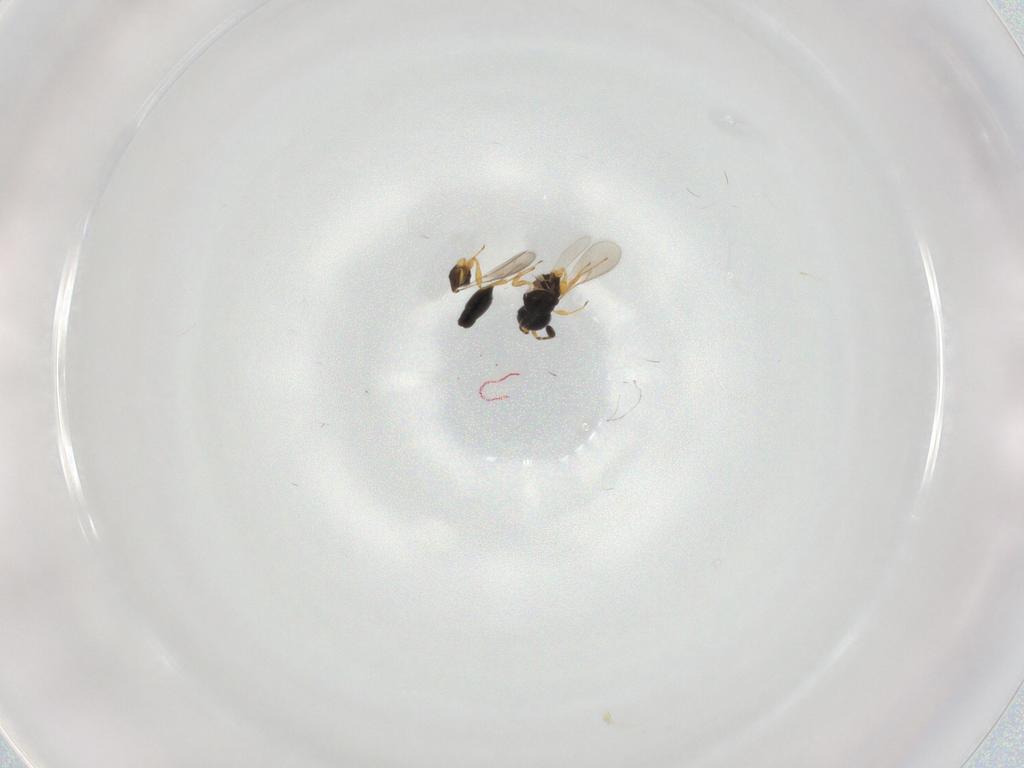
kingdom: Animalia
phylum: Arthropoda
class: Insecta
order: Hymenoptera
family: Scelionidae
